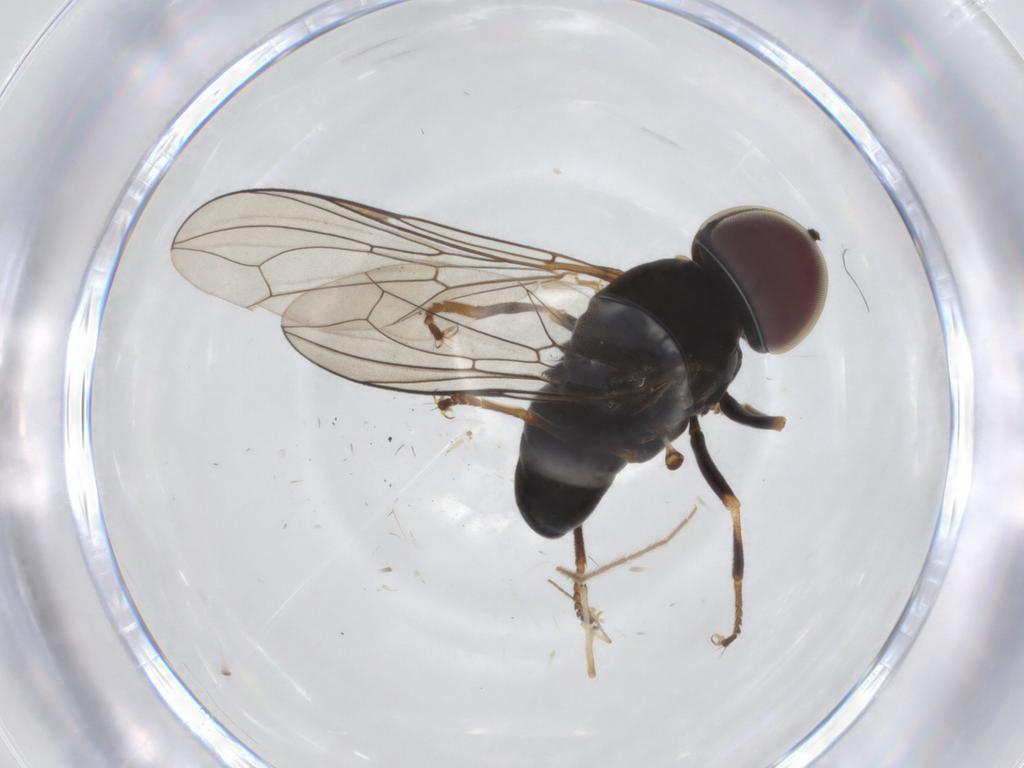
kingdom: Animalia
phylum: Arthropoda
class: Insecta
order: Diptera
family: Pipunculidae
